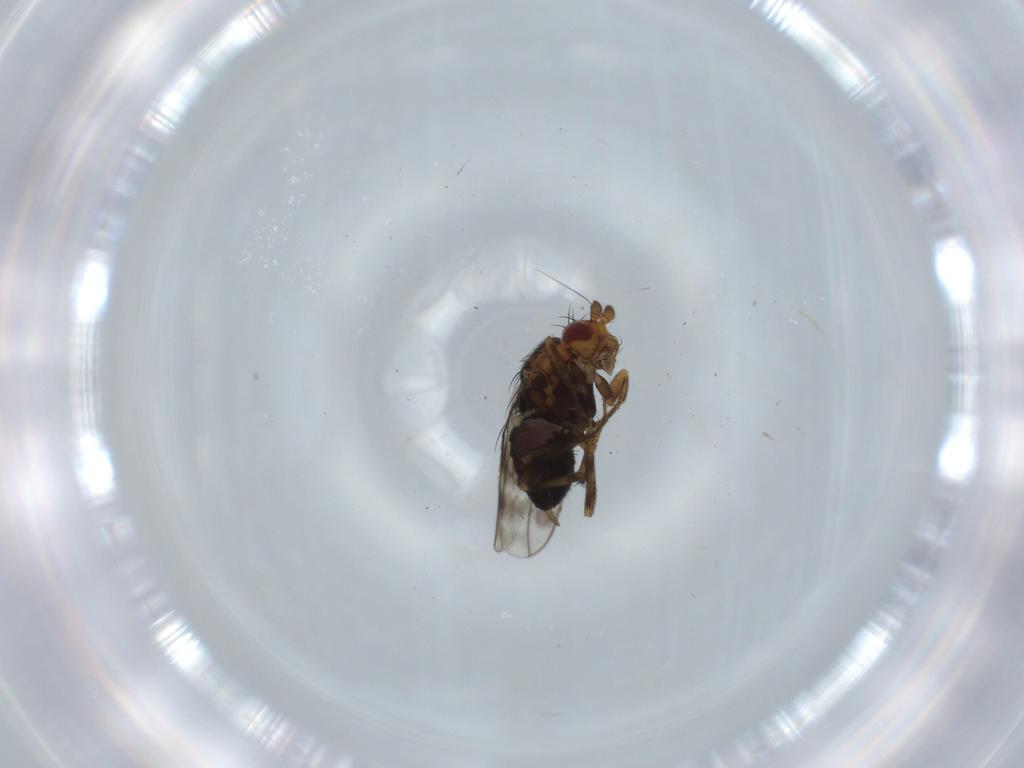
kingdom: Animalia
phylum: Arthropoda
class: Insecta
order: Diptera
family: Sphaeroceridae
